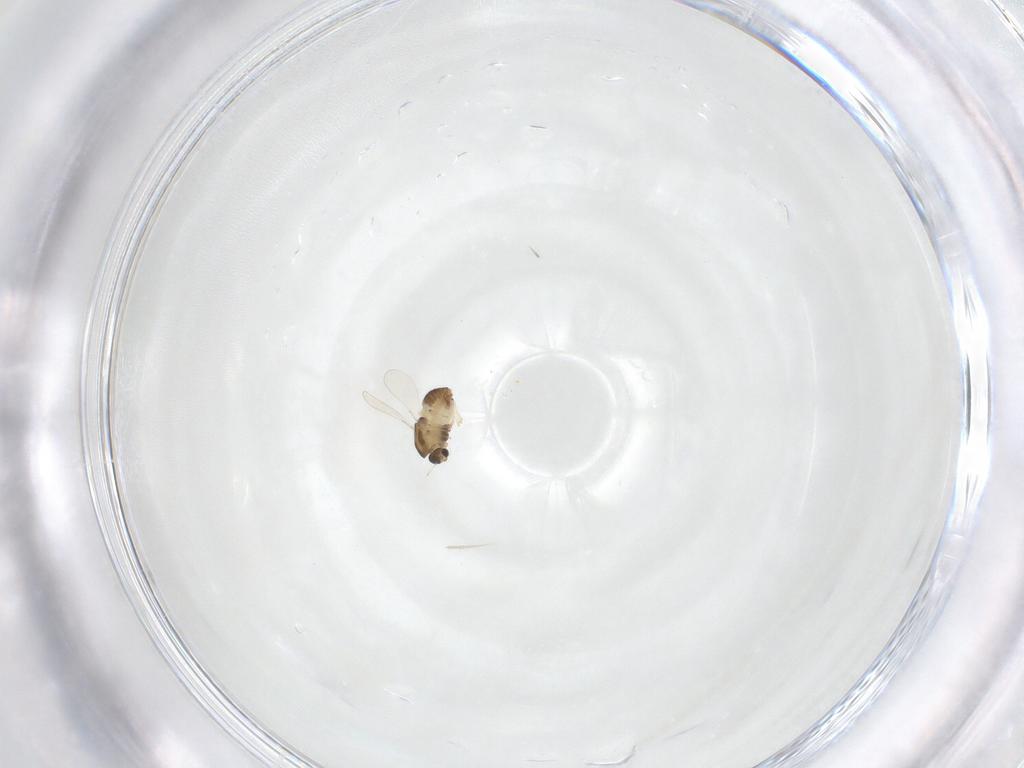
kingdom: Animalia
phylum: Arthropoda
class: Insecta
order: Diptera
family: Chironomidae
